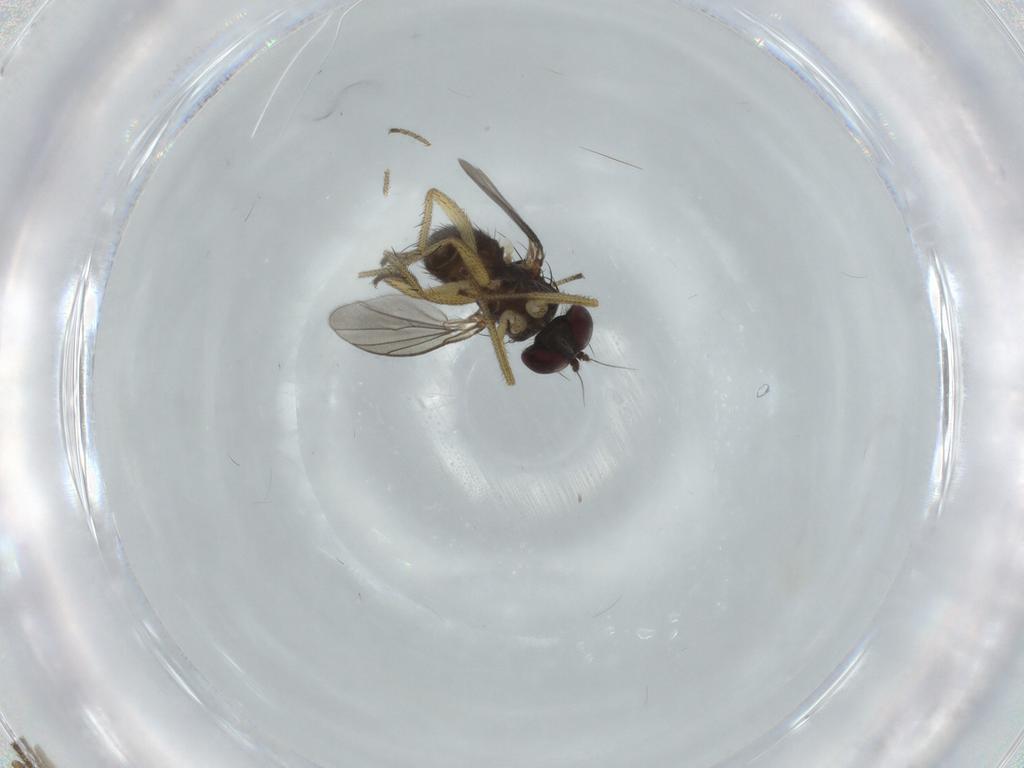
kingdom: Animalia
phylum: Arthropoda
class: Insecta
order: Diptera
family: Dolichopodidae
